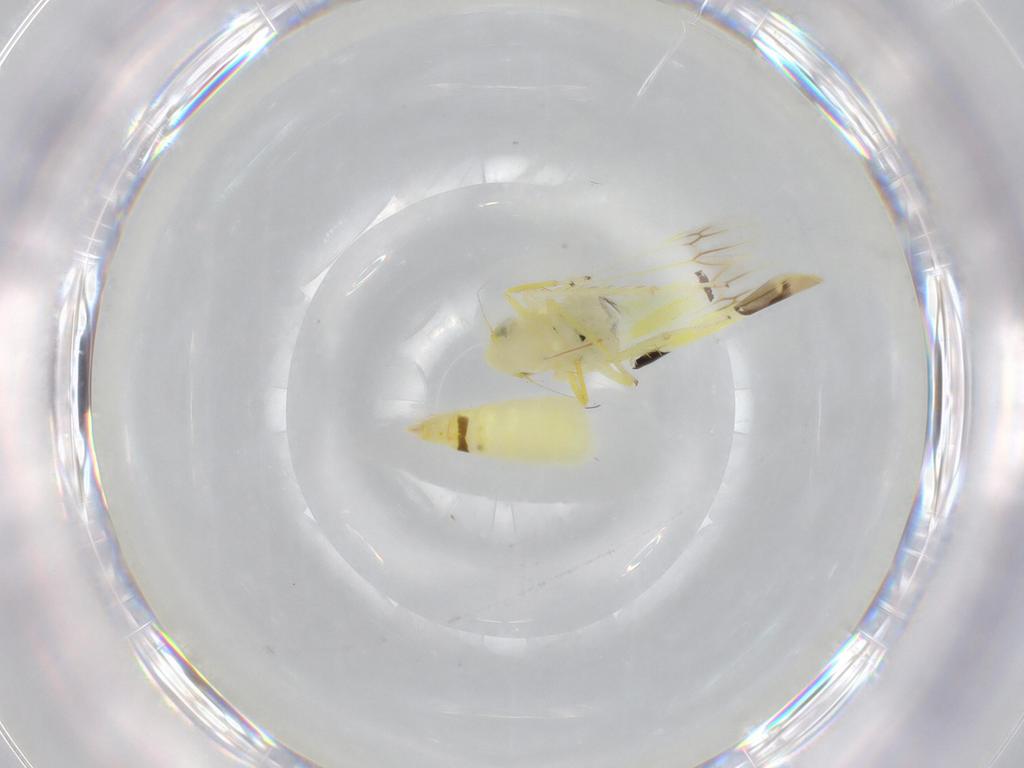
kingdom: Animalia
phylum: Arthropoda
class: Insecta
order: Hemiptera
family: Cicadellidae
